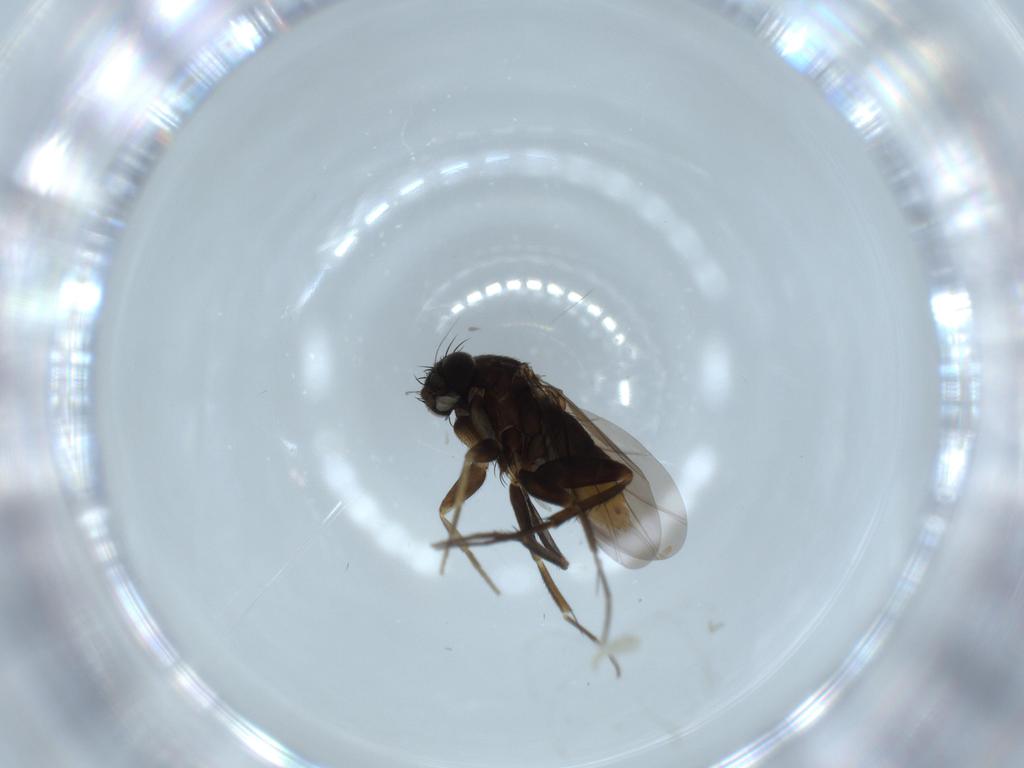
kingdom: Animalia
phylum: Arthropoda
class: Insecta
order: Diptera
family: Phoridae
